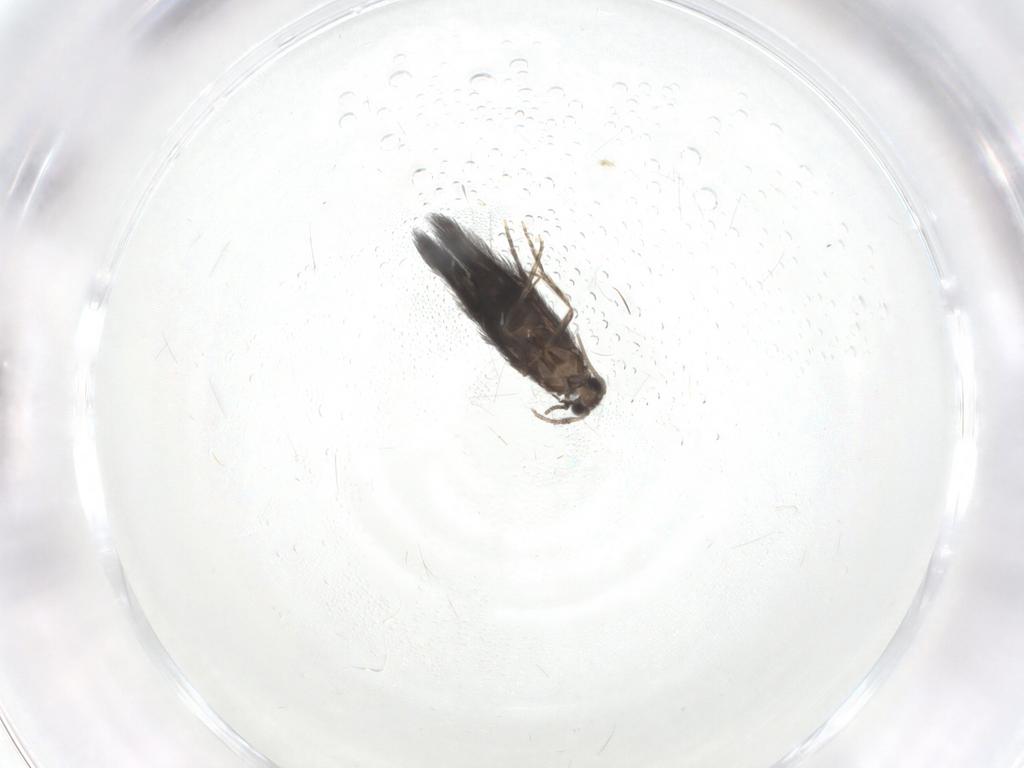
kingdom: Animalia
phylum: Arthropoda
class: Insecta
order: Trichoptera
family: Hydroptilidae
